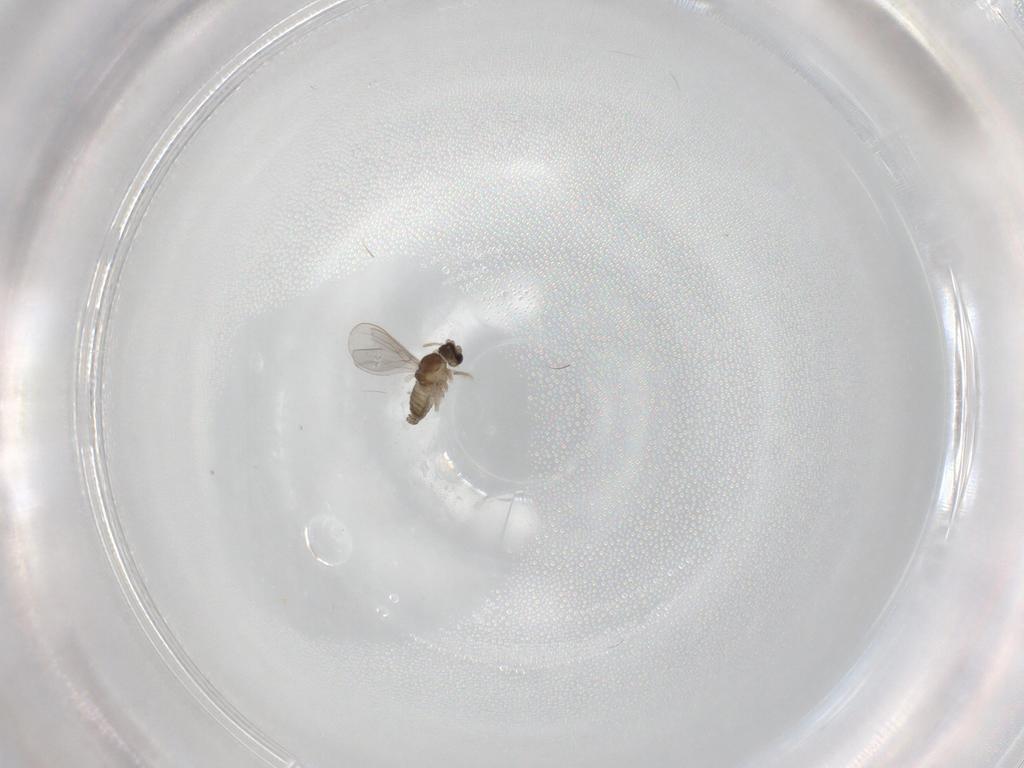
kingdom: Animalia
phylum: Arthropoda
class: Insecta
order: Diptera
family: Cecidomyiidae
